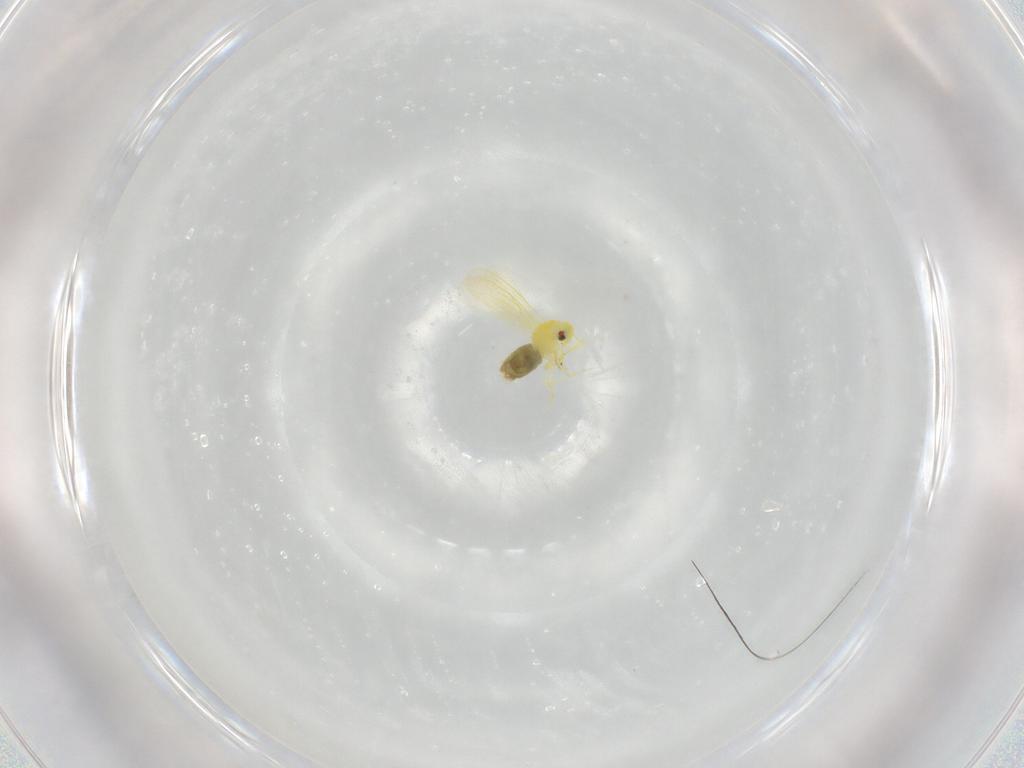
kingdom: Animalia
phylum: Arthropoda
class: Insecta
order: Hemiptera
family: Aleyrodidae
